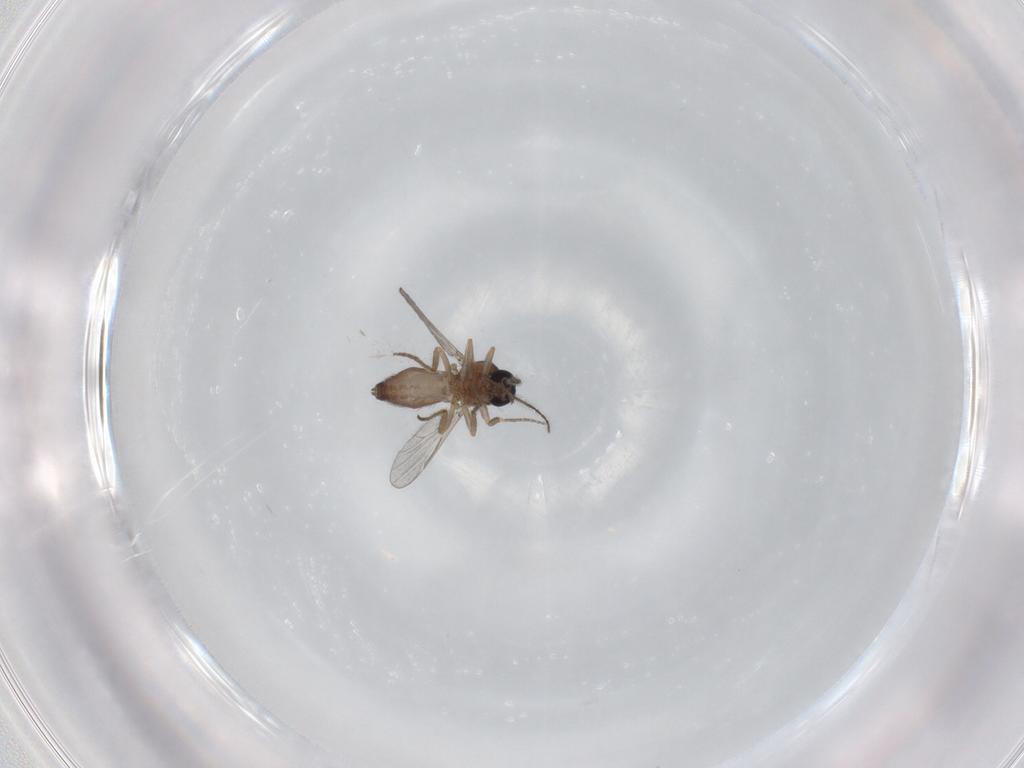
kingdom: Animalia
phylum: Arthropoda
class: Insecta
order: Diptera
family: Ceratopogonidae
